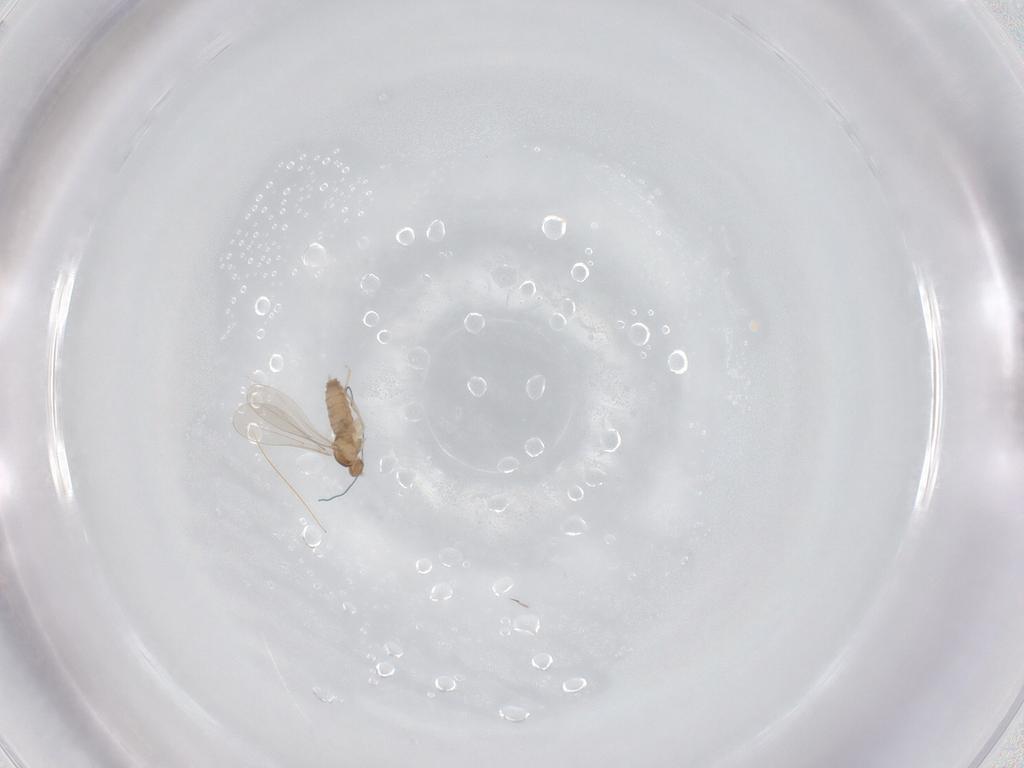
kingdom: Animalia
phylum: Arthropoda
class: Insecta
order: Diptera
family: Cecidomyiidae
